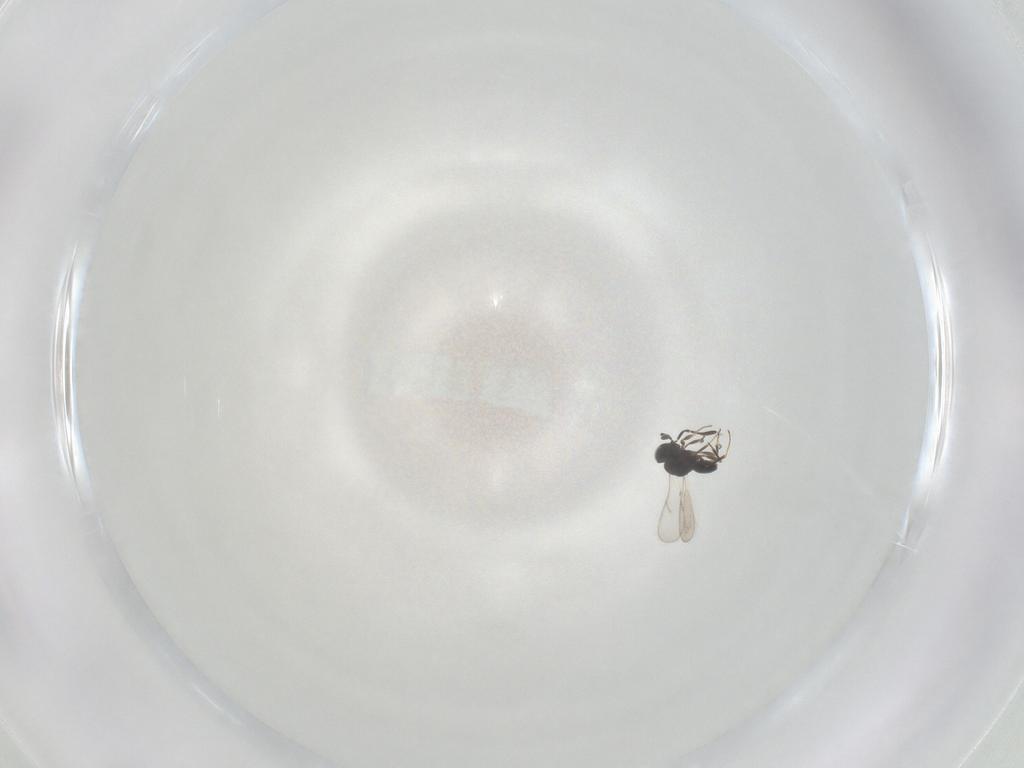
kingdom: Animalia
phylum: Arthropoda
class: Insecta
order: Hymenoptera
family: Scelionidae
